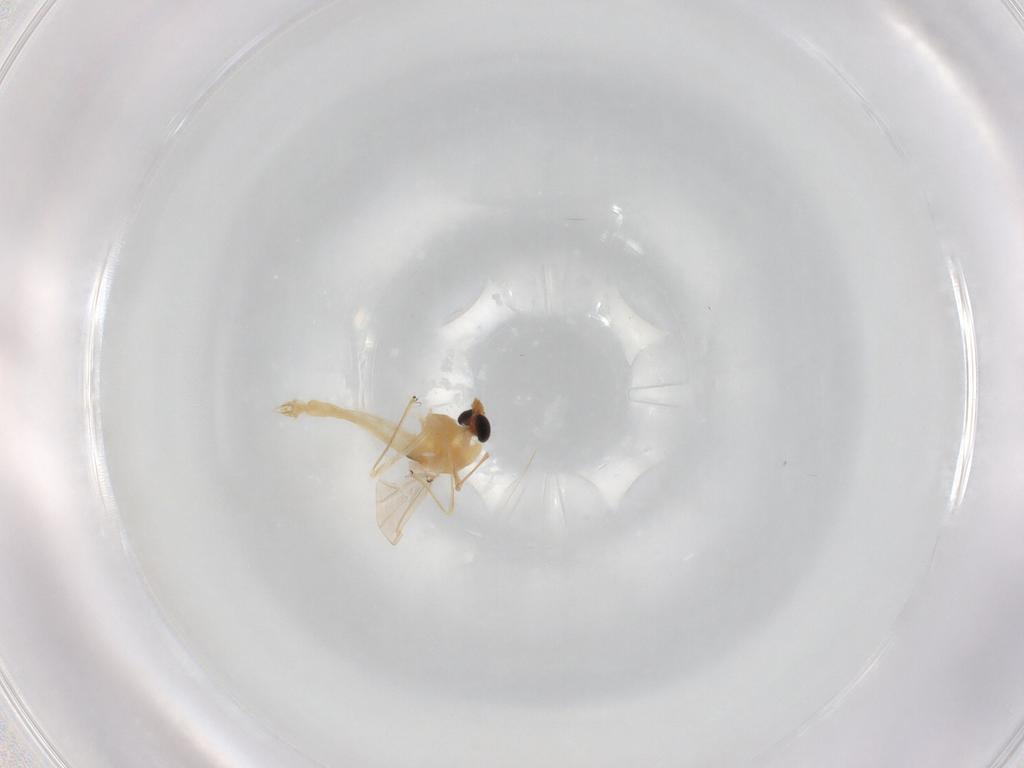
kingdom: Animalia
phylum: Arthropoda
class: Insecta
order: Diptera
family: Chironomidae
